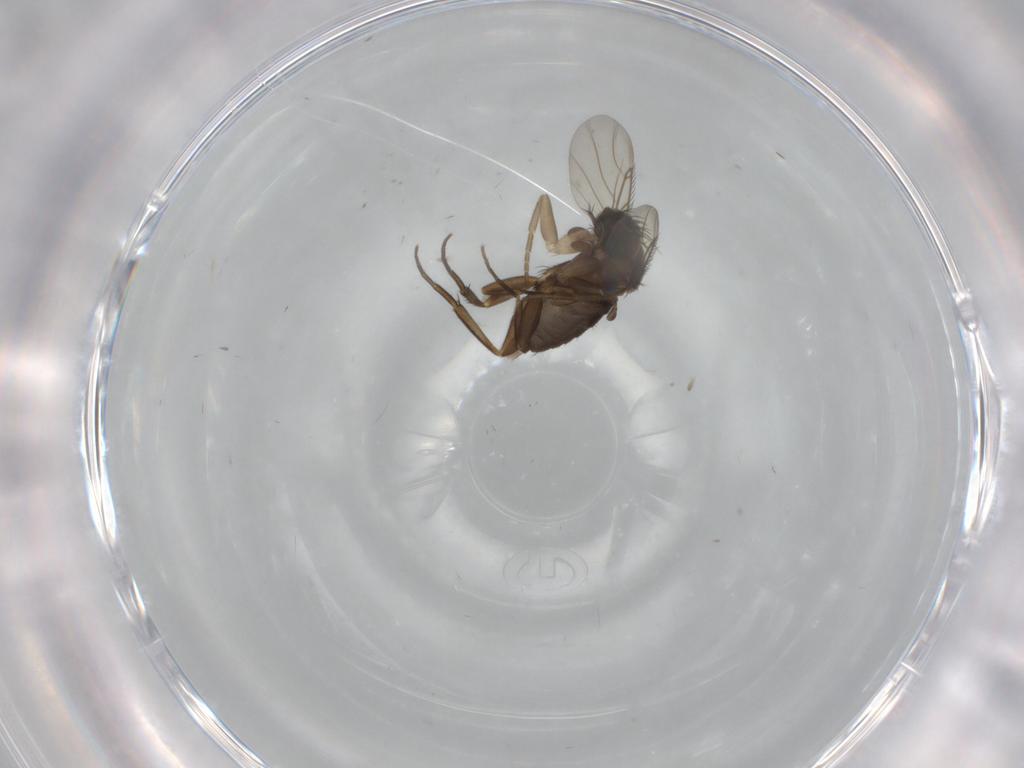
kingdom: Animalia
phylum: Arthropoda
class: Insecta
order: Diptera
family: Phoridae
